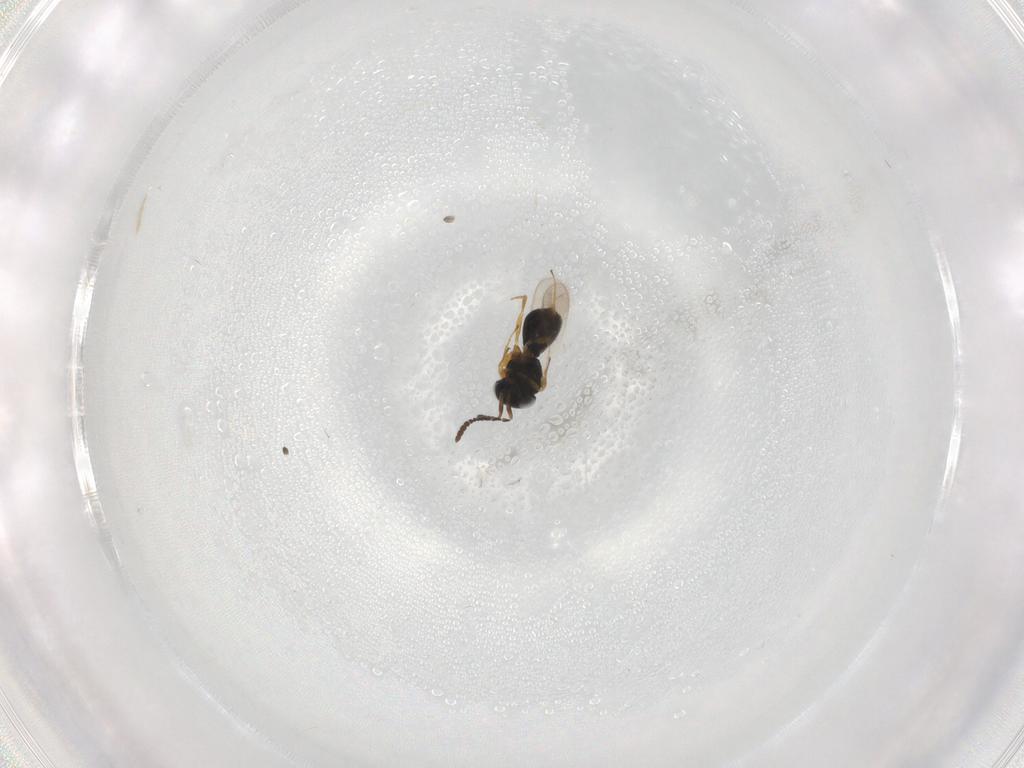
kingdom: Animalia
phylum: Arthropoda
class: Insecta
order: Hymenoptera
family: Scelionidae
